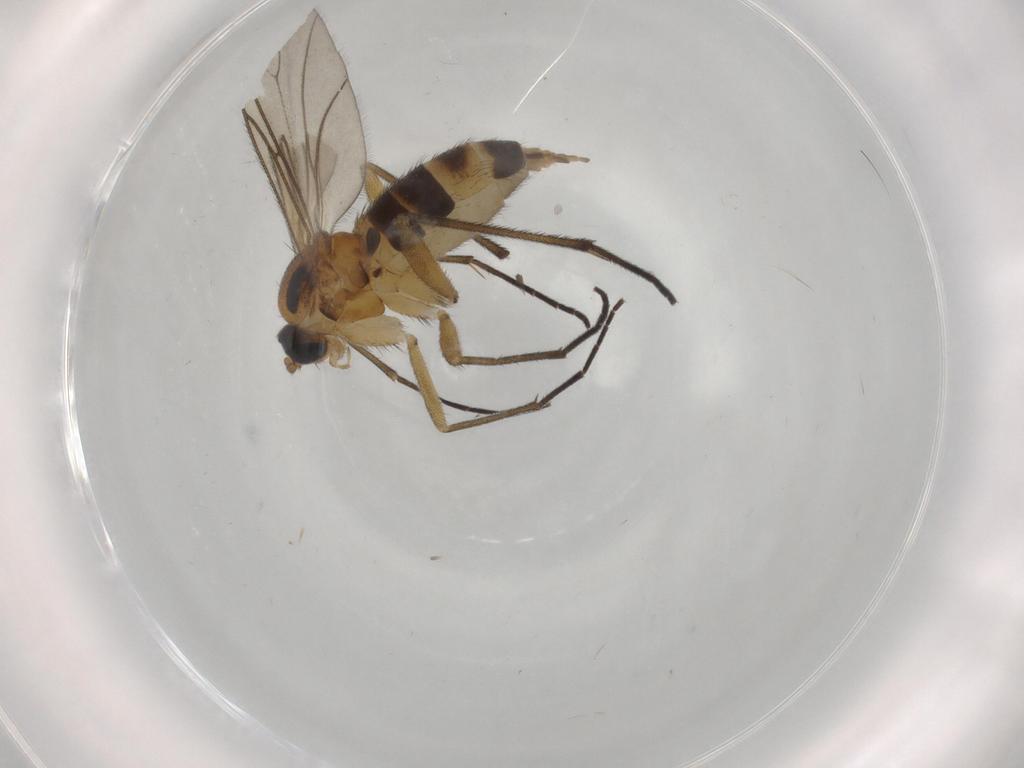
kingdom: Animalia
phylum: Arthropoda
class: Insecta
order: Diptera
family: Sciaridae
